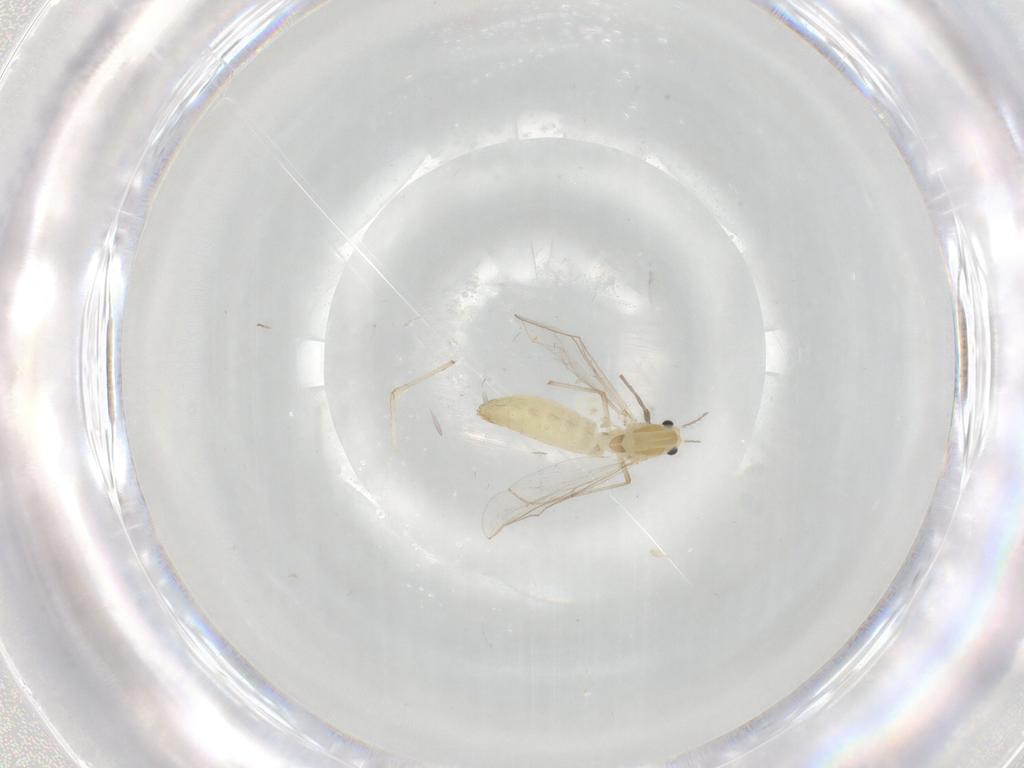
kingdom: Animalia
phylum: Arthropoda
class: Insecta
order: Diptera
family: Chironomidae
